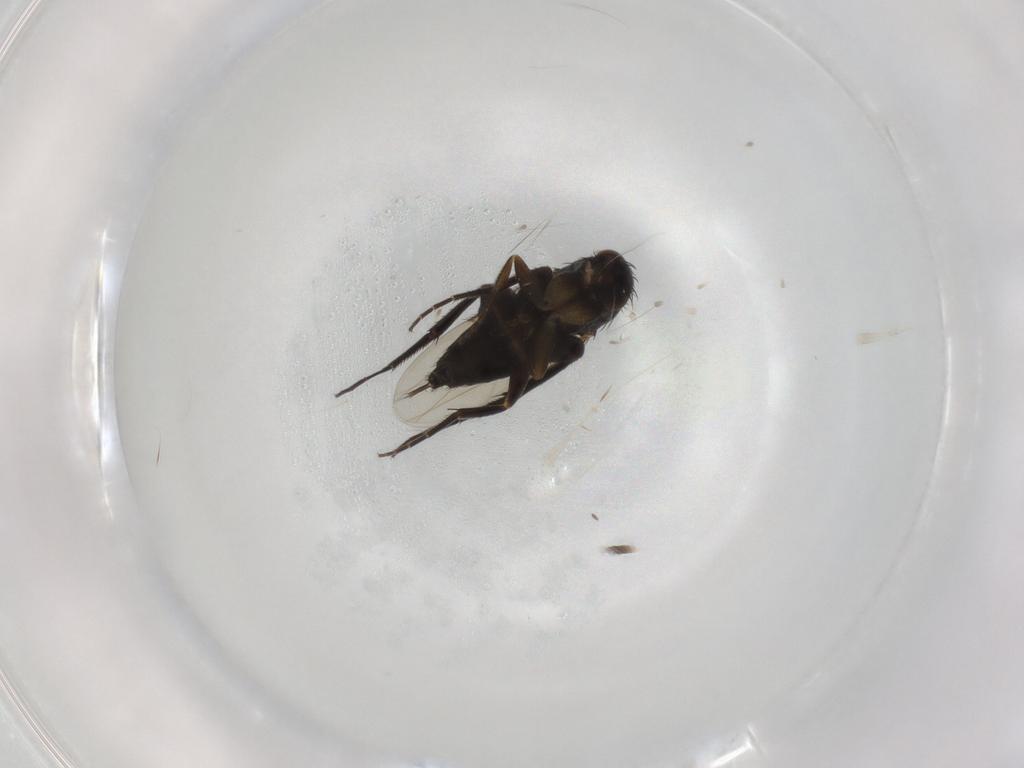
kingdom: Animalia
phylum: Arthropoda
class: Insecta
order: Diptera
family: Phoridae
